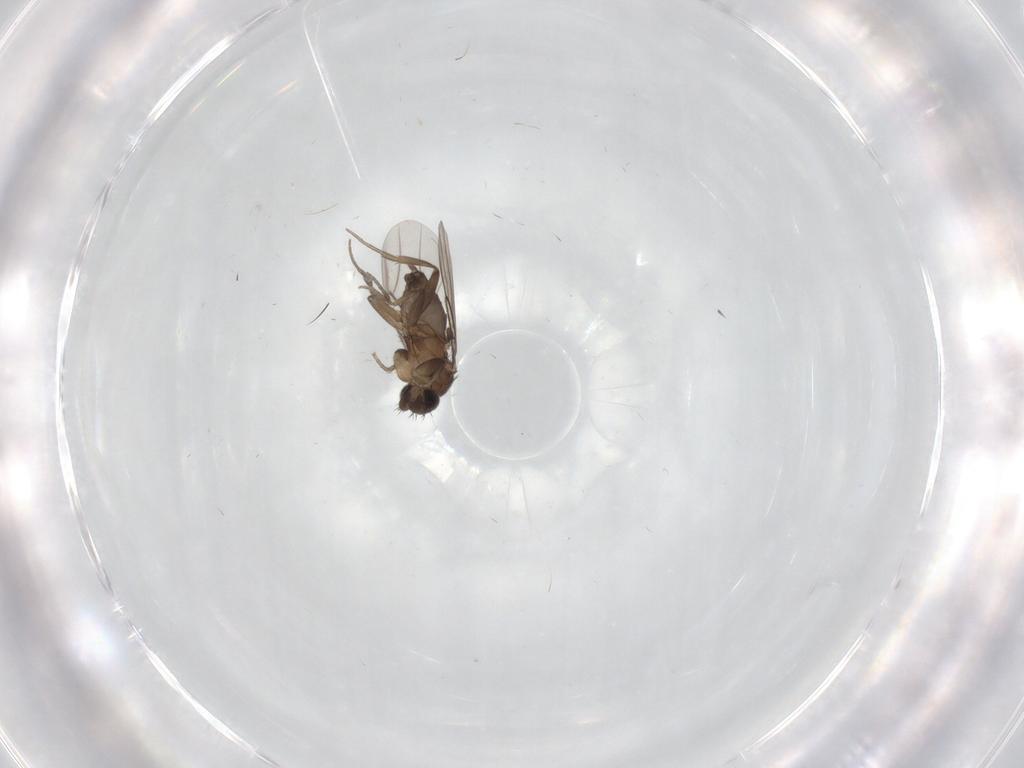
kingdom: Animalia
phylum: Arthropoda
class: Insecta
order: Diptera
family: Phoridae
